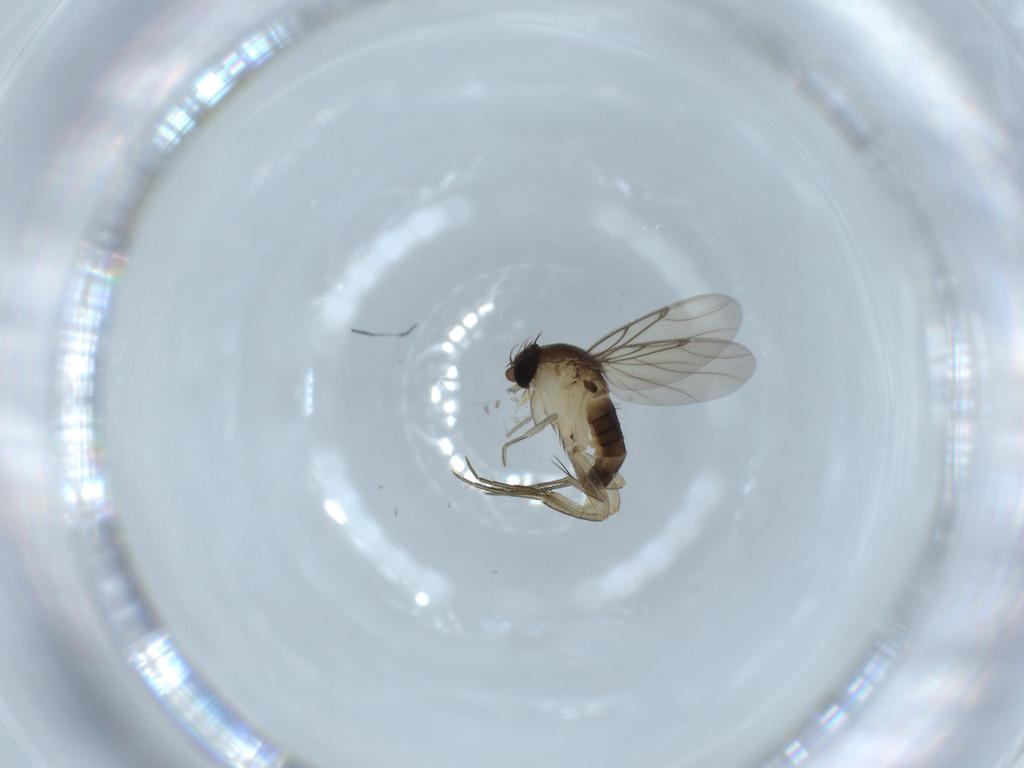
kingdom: Animalia
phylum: Arthropoda
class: Insecta
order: Diptera
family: Phoridae
